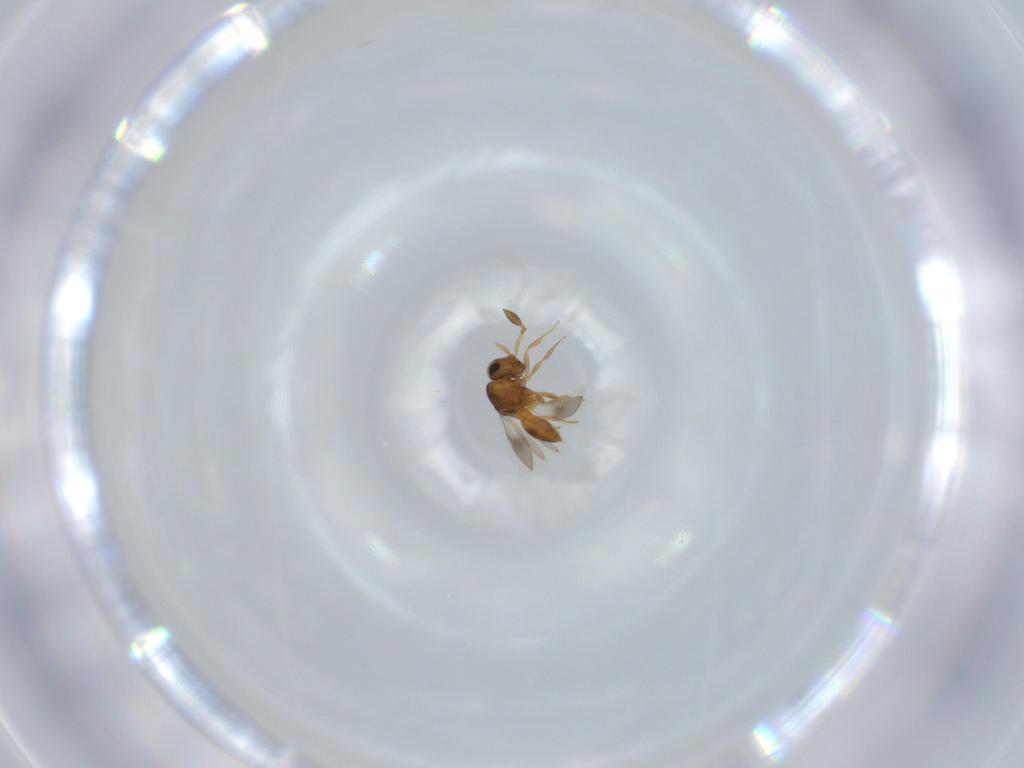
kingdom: Animalia
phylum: Arthropoda
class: Insecta
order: Hymenoptera
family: Scelionidae
